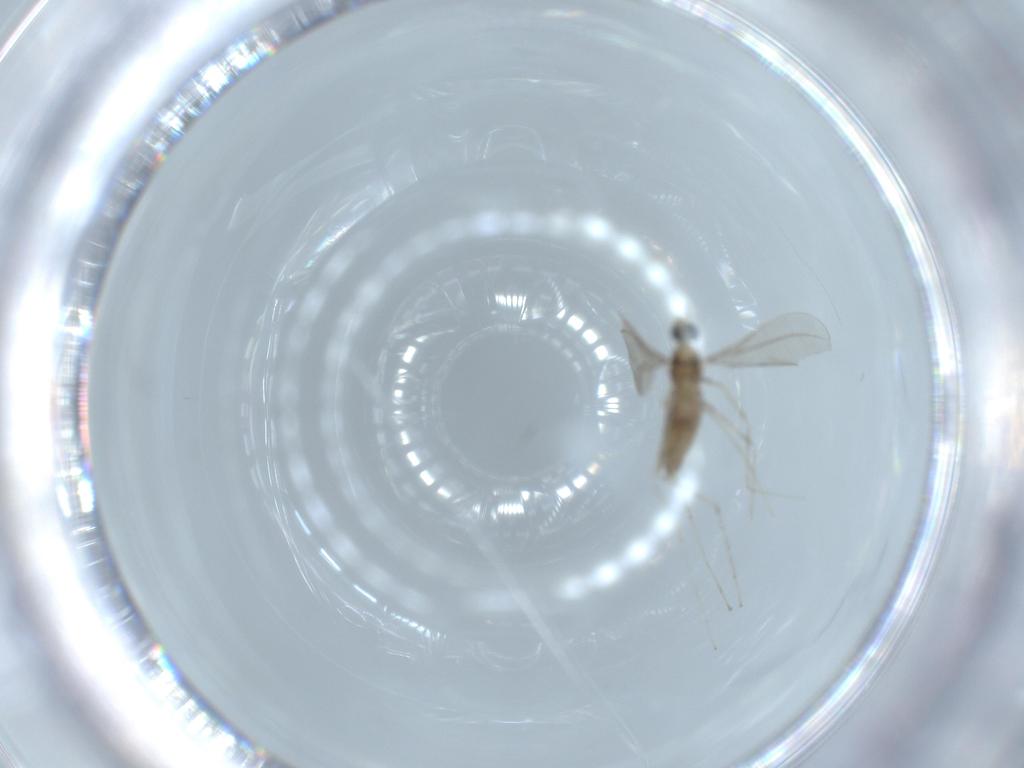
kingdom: Animalia
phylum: Arthropoda
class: Insecta
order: Diptera
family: Cecidomyiidae
